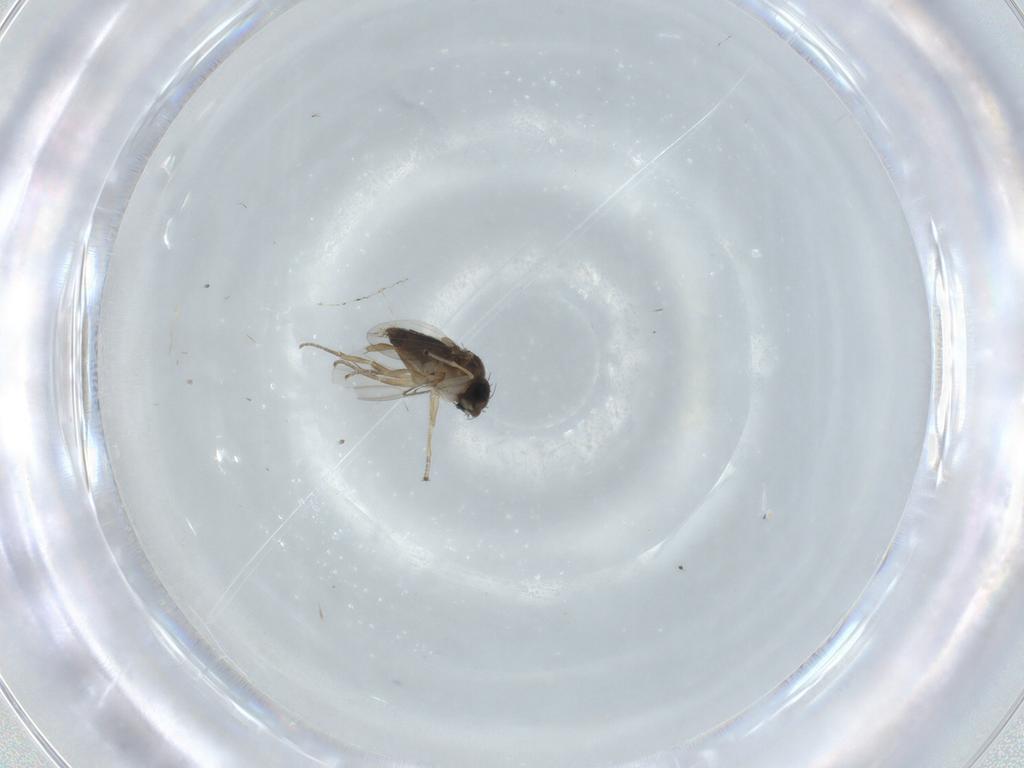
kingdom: Animalia
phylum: Arthropoda
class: Insecta
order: Diptera
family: Phoridae
